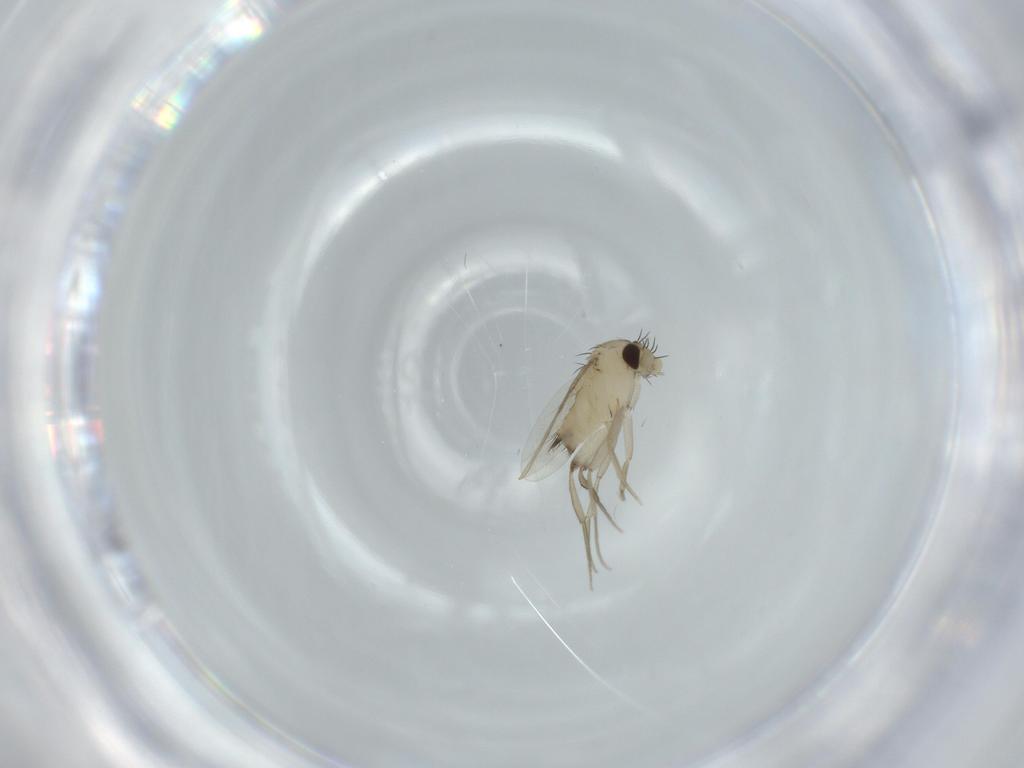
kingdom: Animalia
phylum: Arthropoda
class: Insecta
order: Diptera
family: Phoridae
